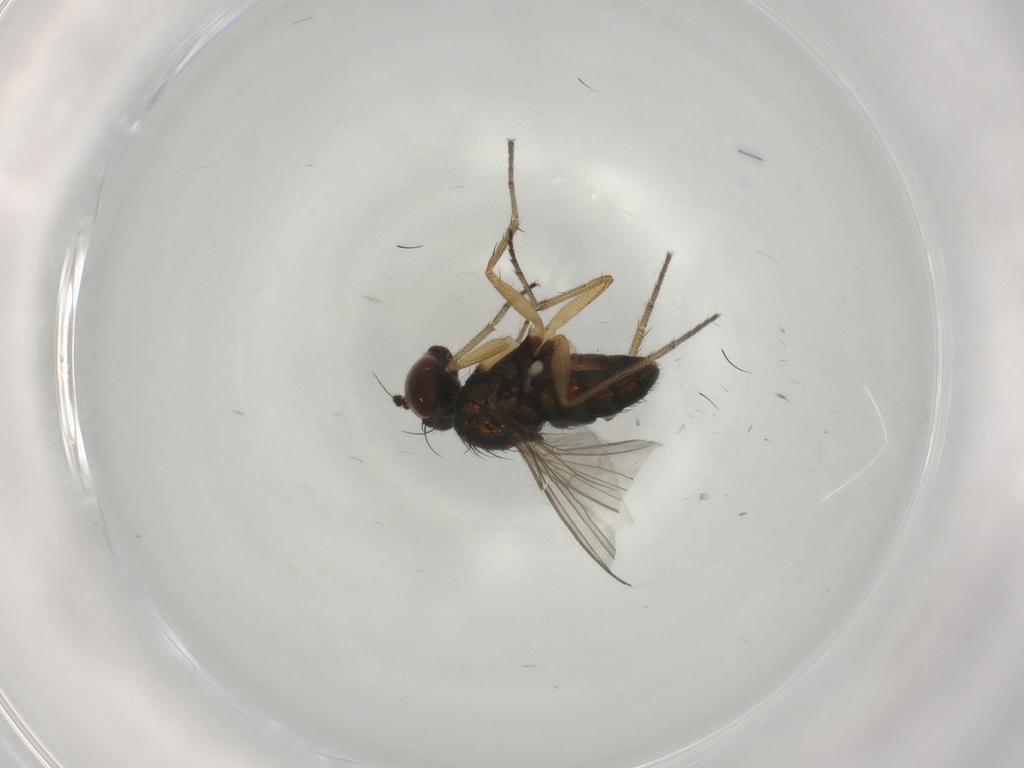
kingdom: Animalia
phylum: Arthropoda
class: Insecta
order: Diptera
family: Dolichopodidae
